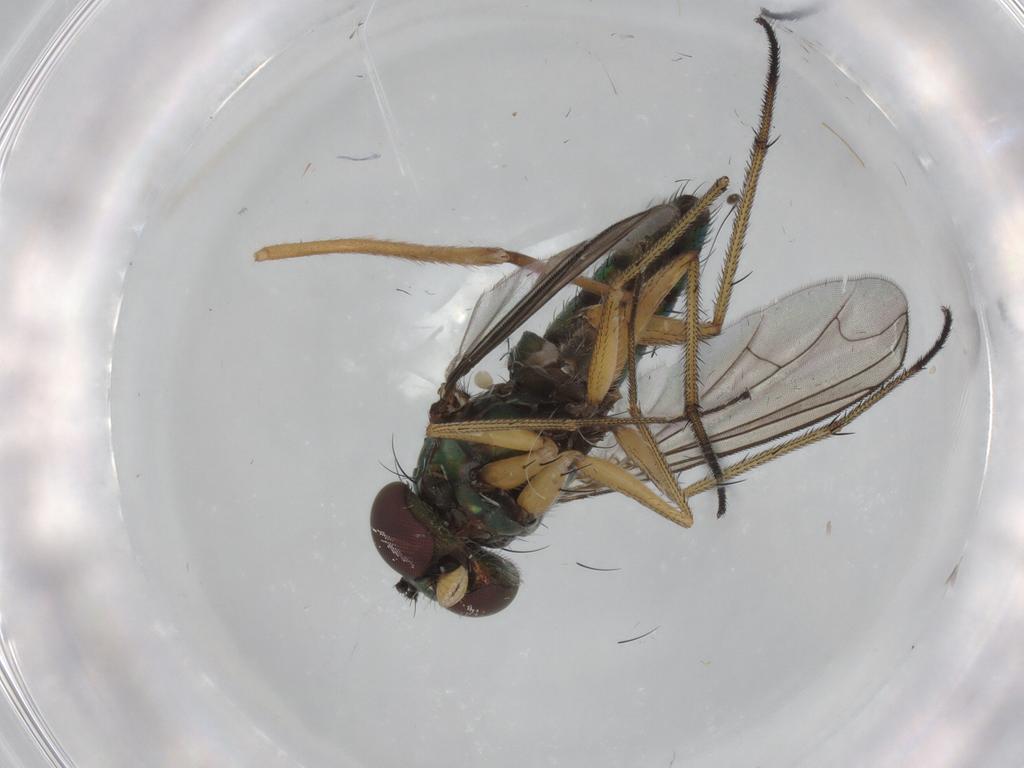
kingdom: Animalia
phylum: Arthropoda
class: Insecta
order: Diptera
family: Dolichopodidae
